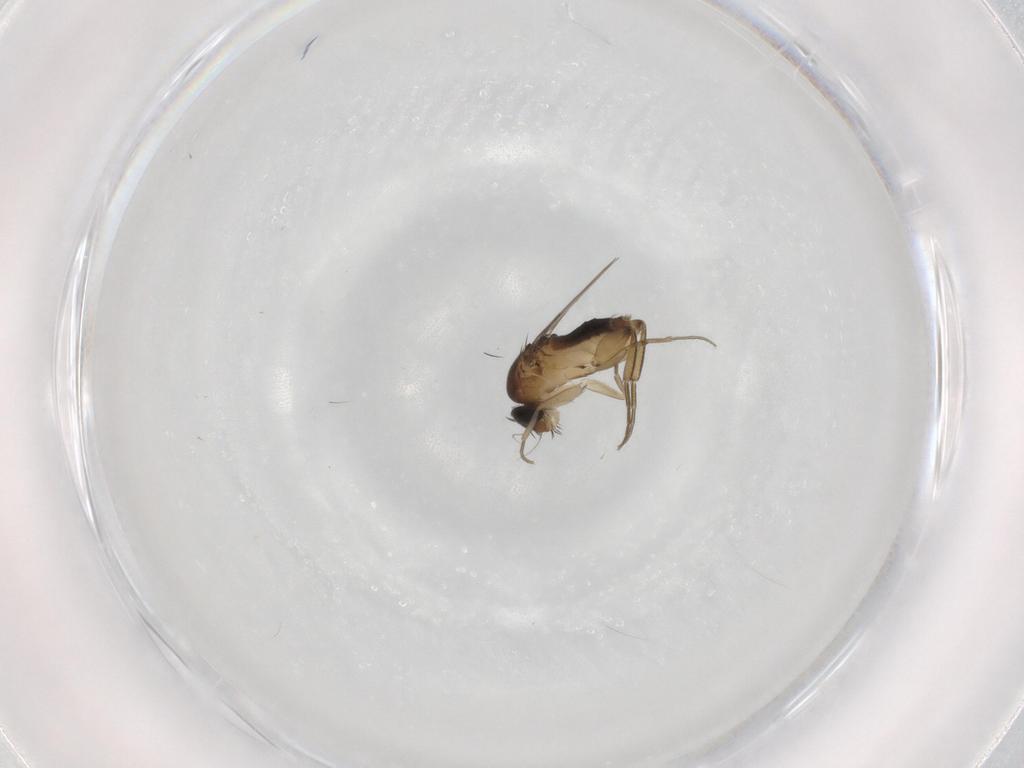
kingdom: Animalia
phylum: Arthropoda
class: Insecta
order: Diptera
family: Phoridae
